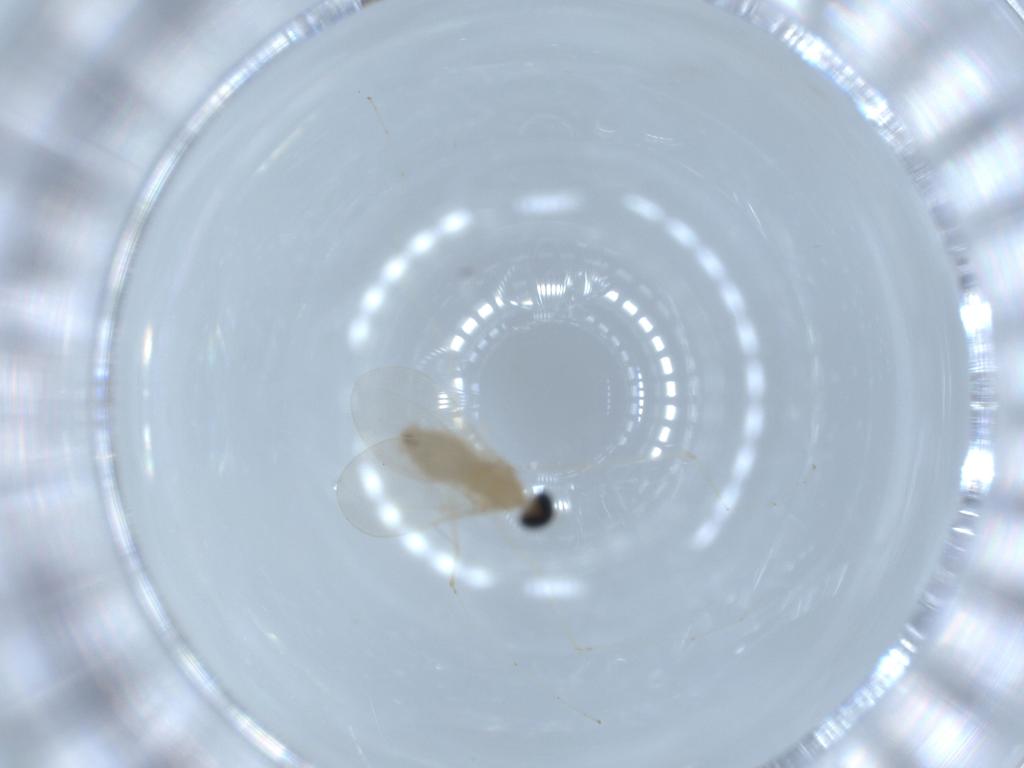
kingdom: Animalia
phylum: Arthropoda
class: Insecta
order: Diptera
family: Cecidomyiidae
